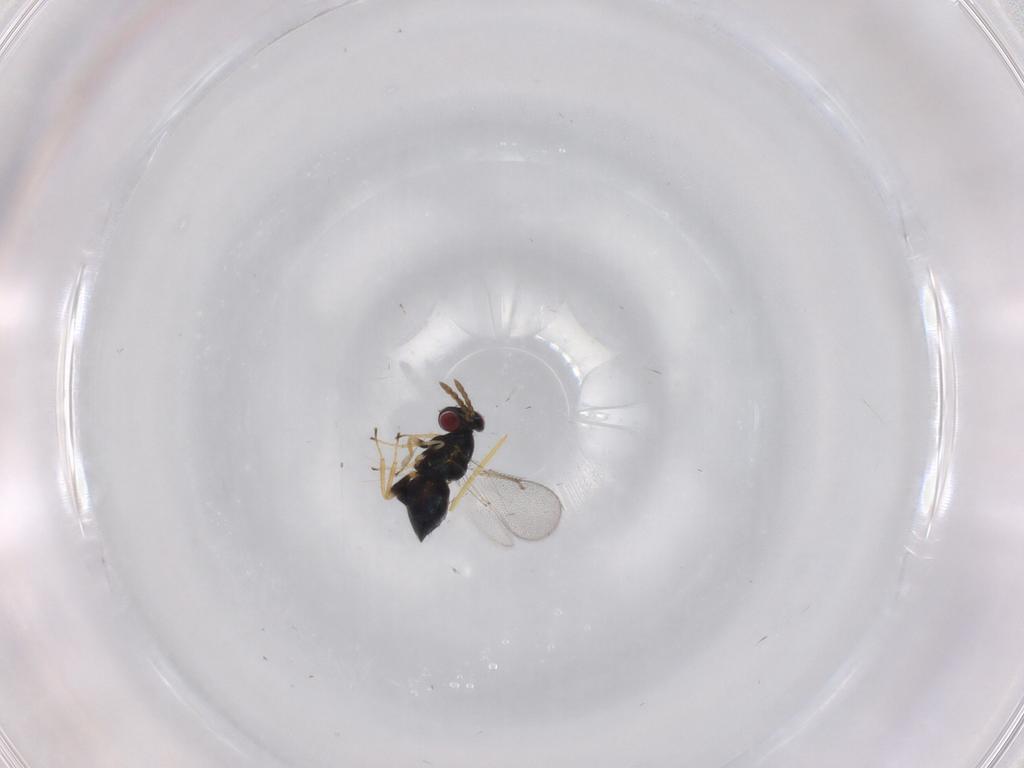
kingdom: Animalia
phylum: Arthropoda
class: Insecta
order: Hymenoptera
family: Eulophidae
